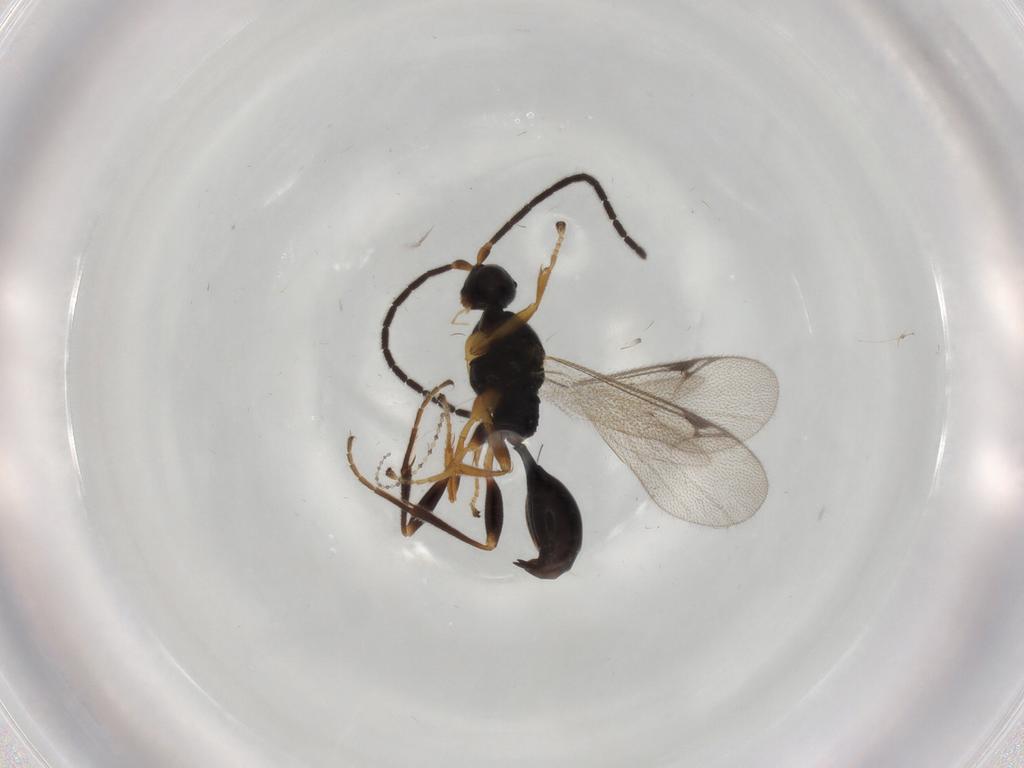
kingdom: Animalia
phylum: Arthropoda
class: Insecta
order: Hymenoptera
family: Proctotrupidae
